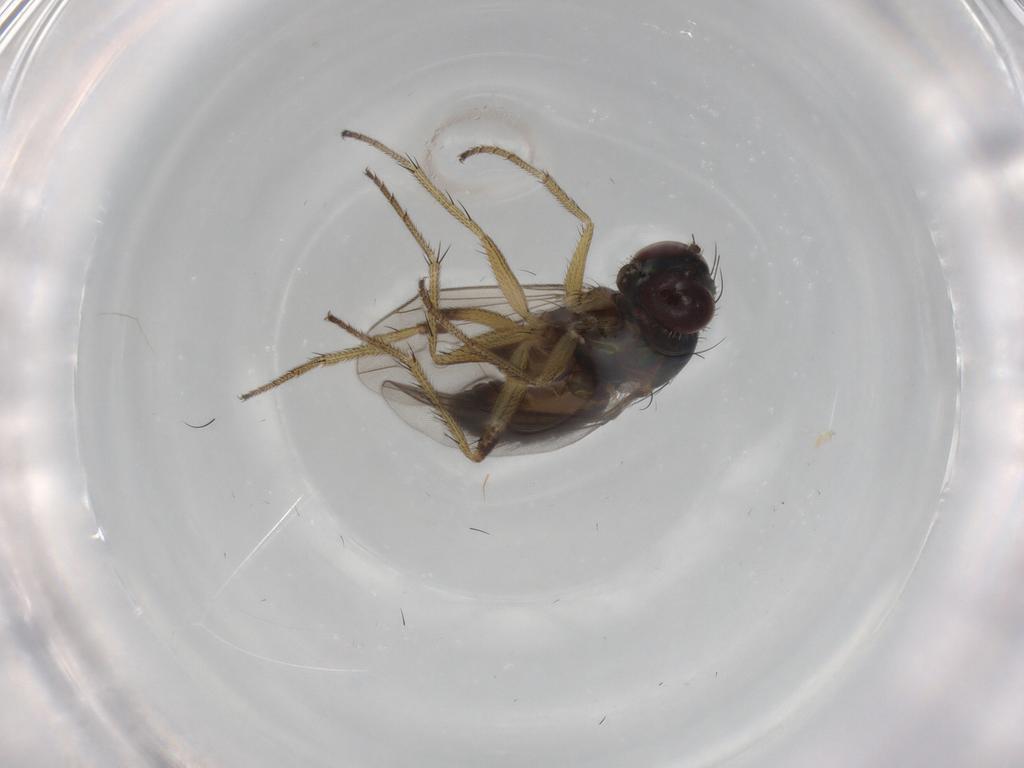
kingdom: Animalia
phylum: Arthropoda
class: Insecta
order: Diptera
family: Dolichopodidae
